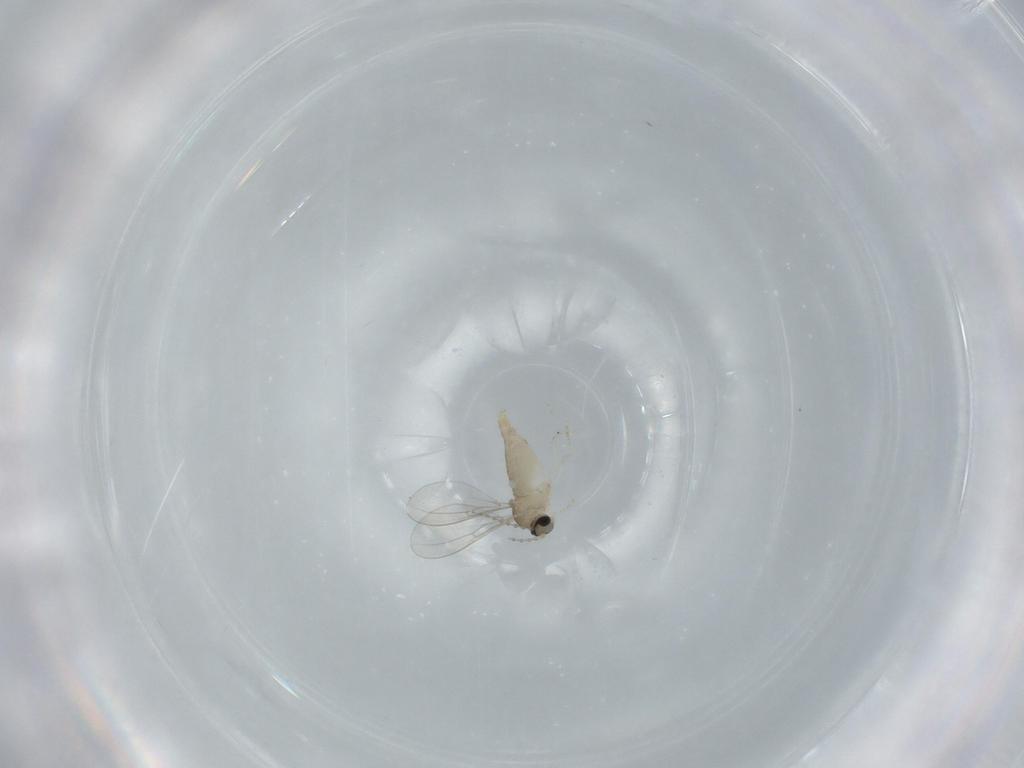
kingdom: Animalia
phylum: Arthropoda
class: Insecta
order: Diptera
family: Cecidomyiidae
